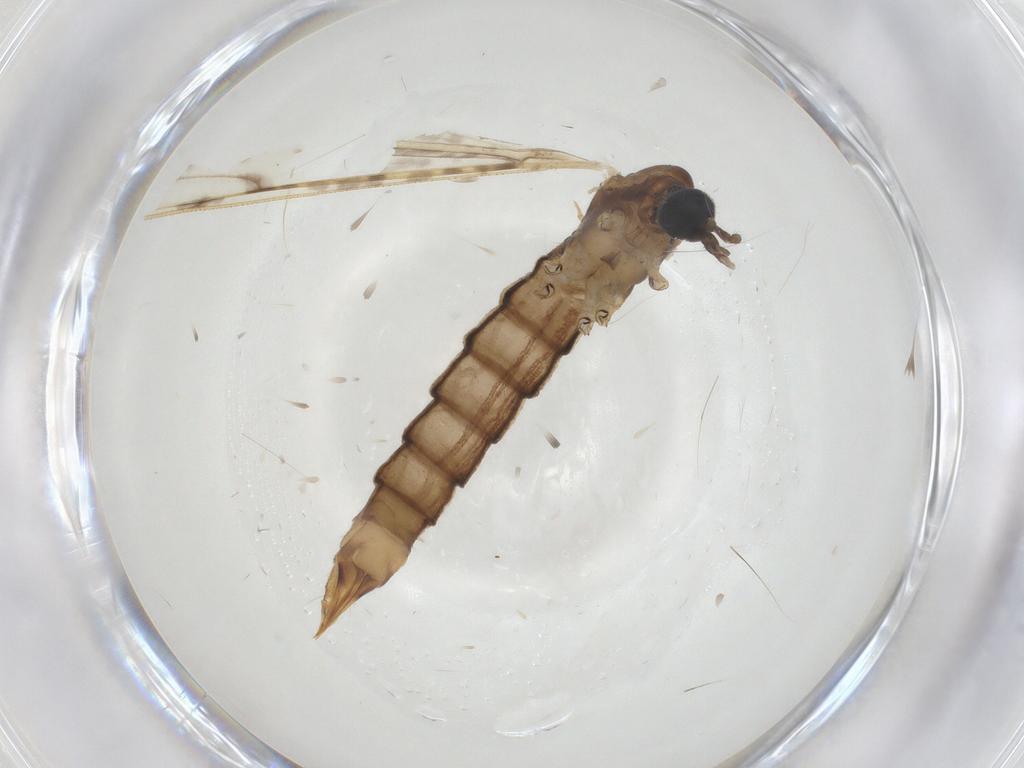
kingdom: Animalia
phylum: Arthropoda
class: Insecta
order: Diptera
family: Limoniidae
